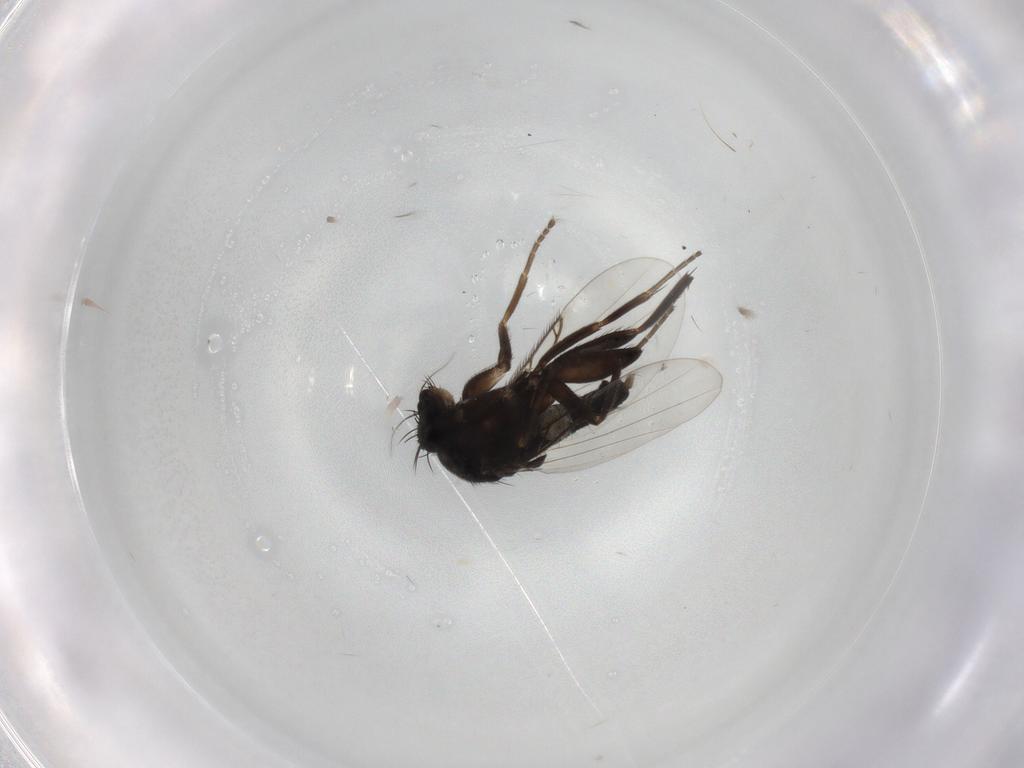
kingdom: Animalia
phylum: Arthropoda
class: Insecta
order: Diptera
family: Phoridae
